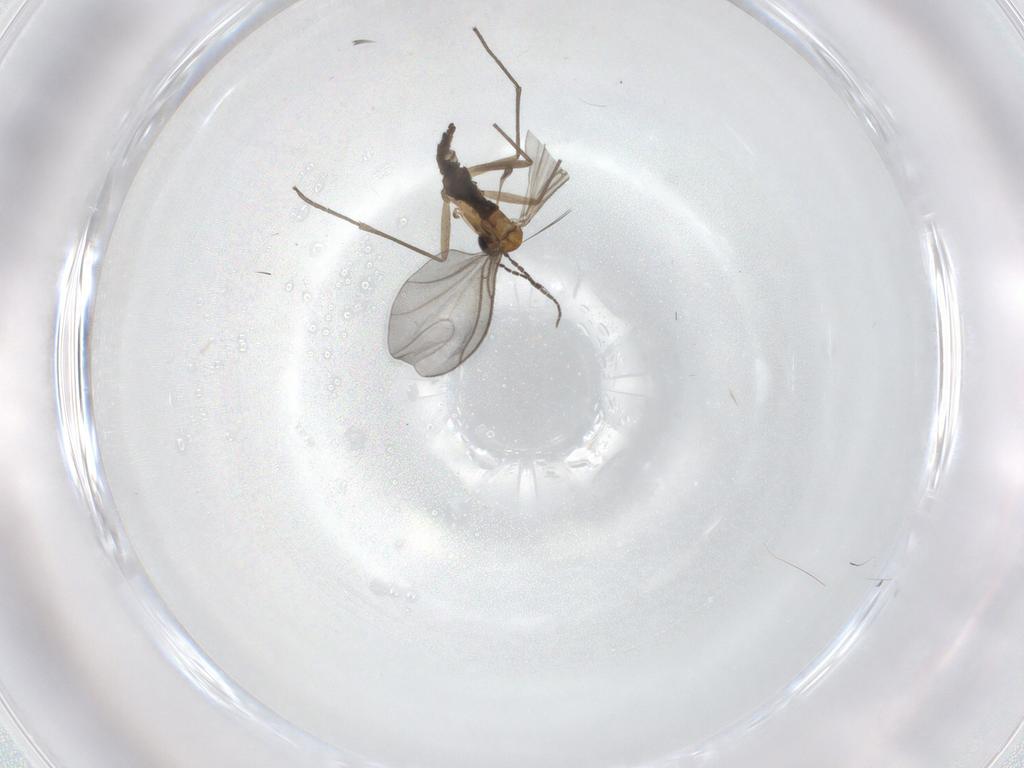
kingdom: Animalia
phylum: Arthropoda
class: Insecta
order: Diptera
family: Sciaridae
